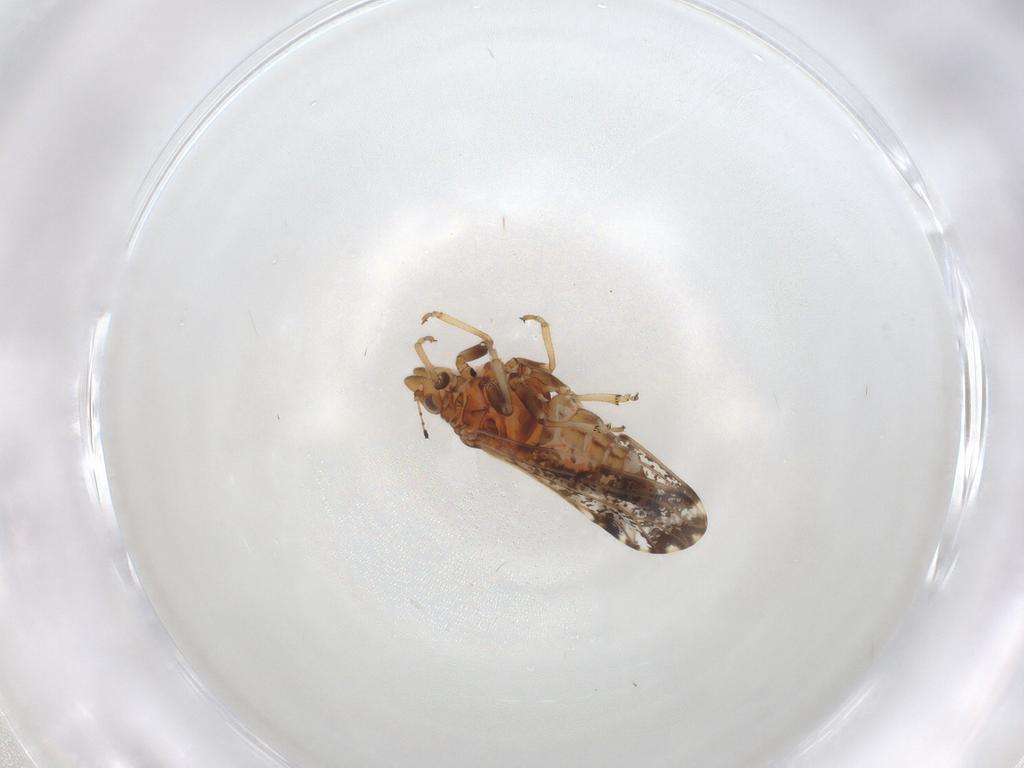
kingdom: Animalia
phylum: Arthropoda
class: Insecta
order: Hemiptera
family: Psylloidea_incertae_sedis
